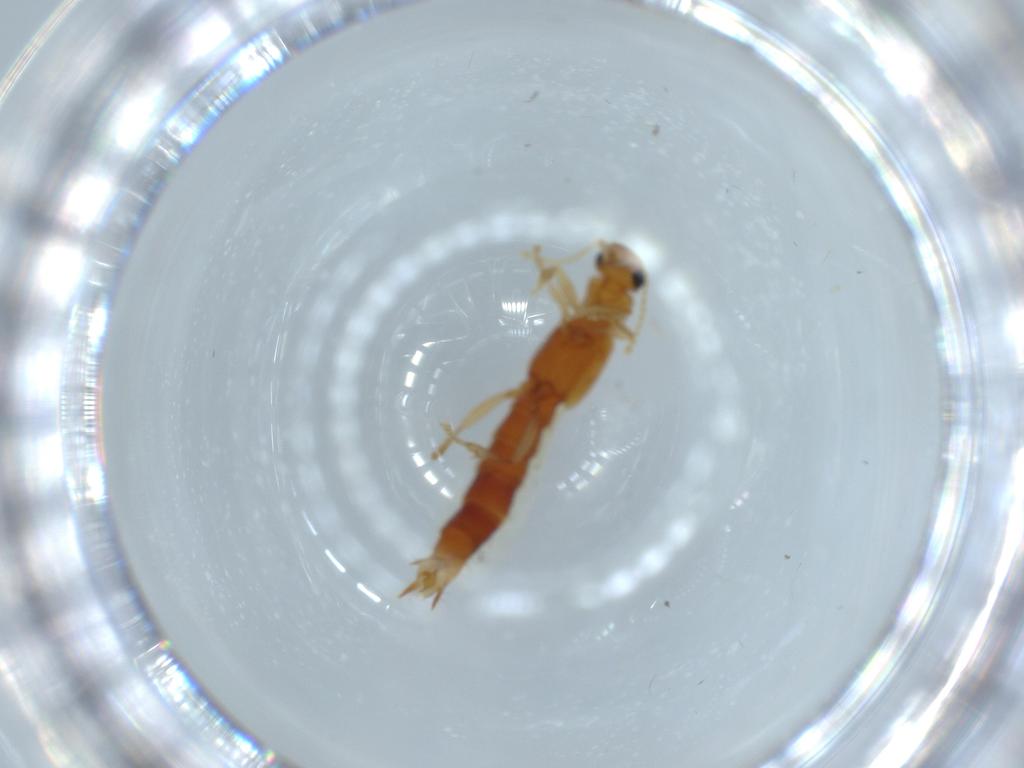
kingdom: Animalia
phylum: Arthropoda
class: Insecta
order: Coleoptera
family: Staphylinidae
